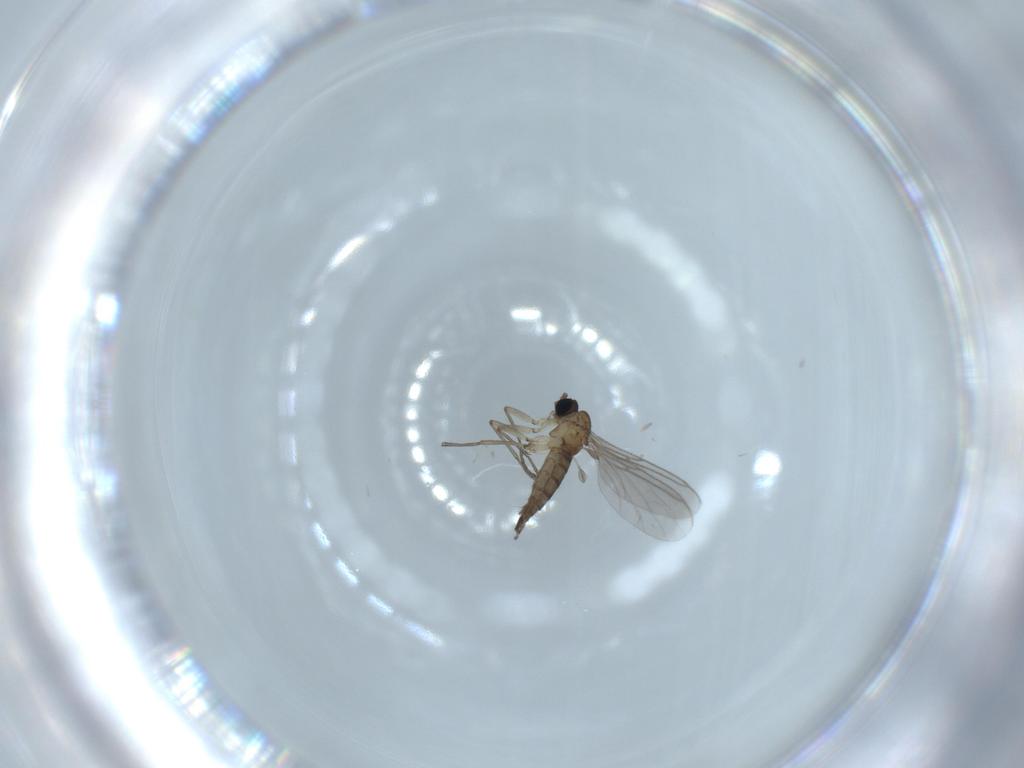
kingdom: Animalia
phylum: Arthropoda
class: Insecta
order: Diptera
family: Sciaridae
